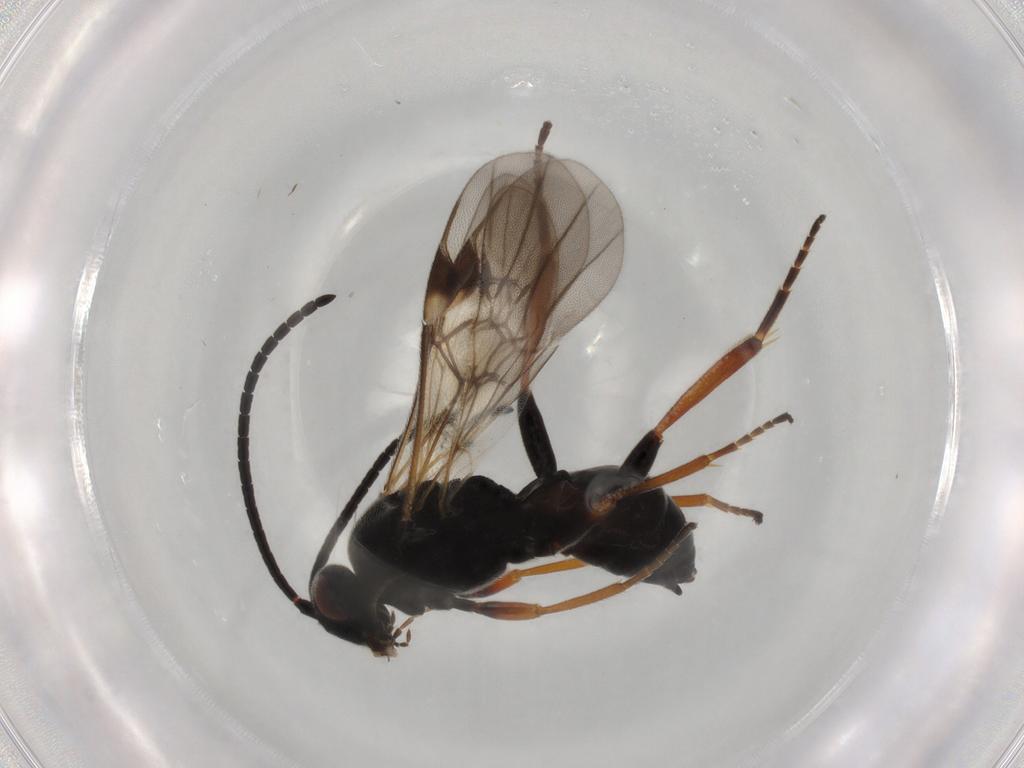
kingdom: Animalia
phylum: Arthropoda
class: Insecta
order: Hymenoptera
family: Braconidae
